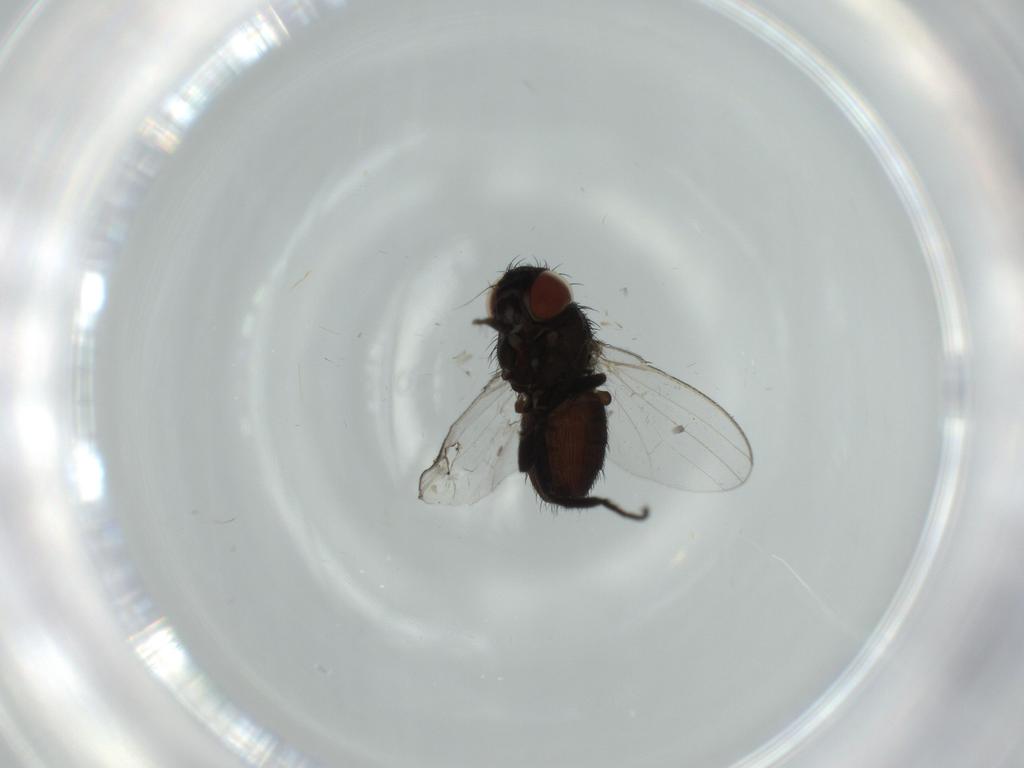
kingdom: Animalia
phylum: Arthropoda
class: Insecta
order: Diptera
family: Milichiidae
